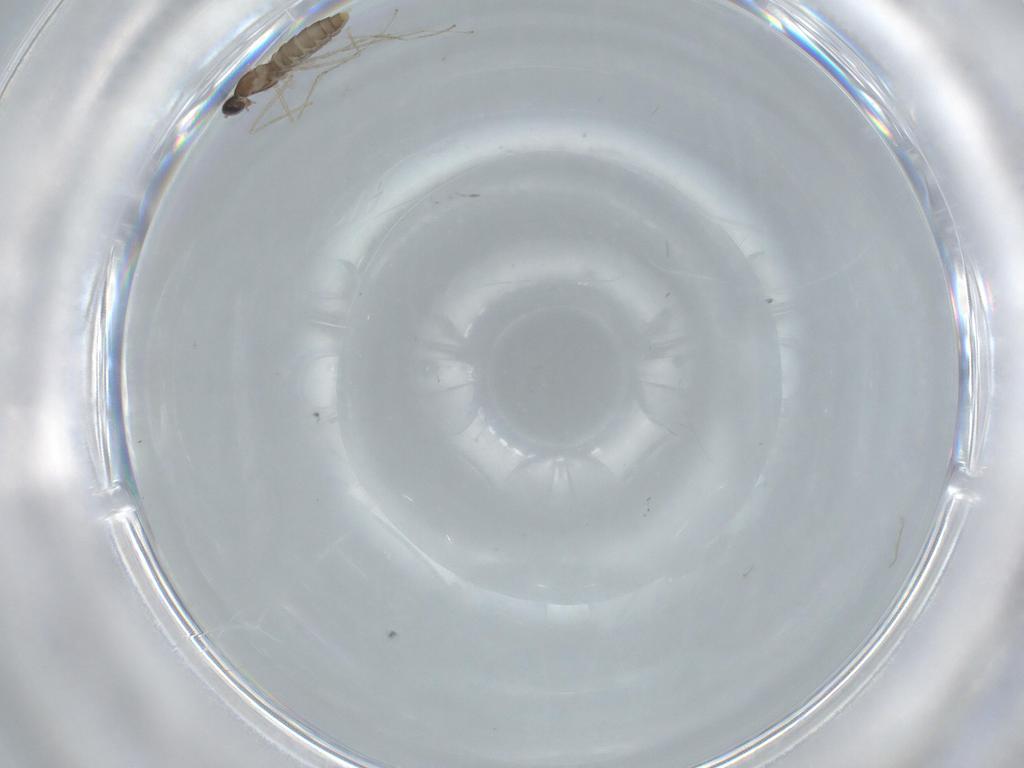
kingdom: Animalia
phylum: Arthropoda
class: Insecta
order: Diptera
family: Cecidomyiidae
